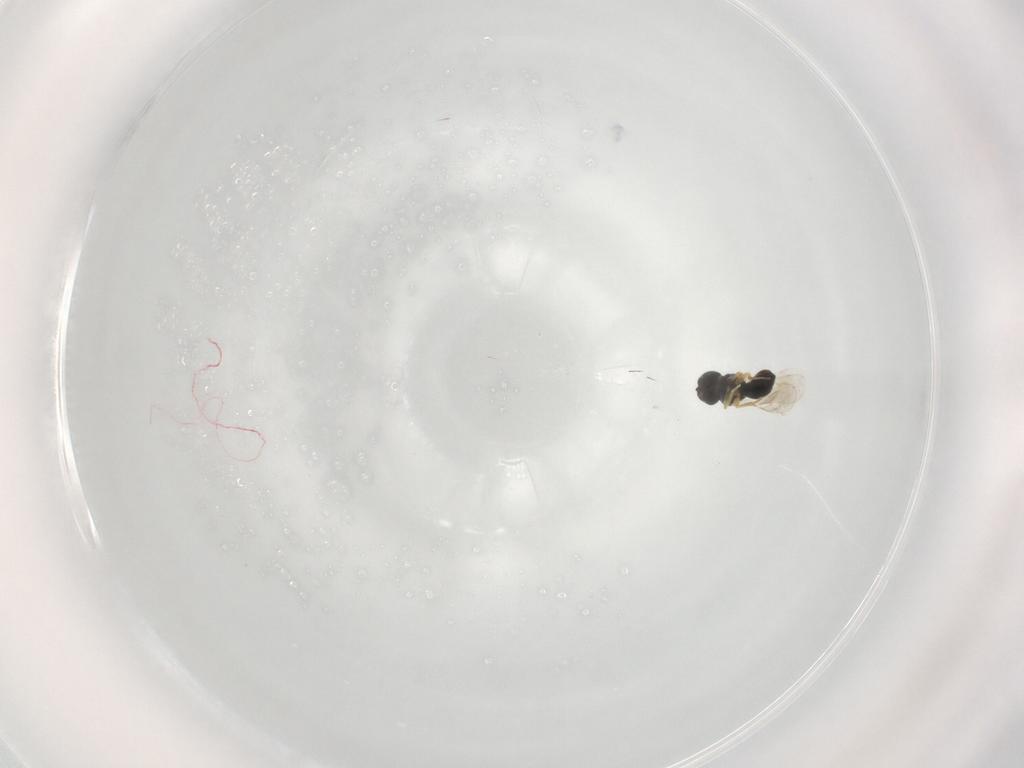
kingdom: Animalia
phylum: Arthropoda
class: Insecta
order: Hymenoptera
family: Scelionidae
